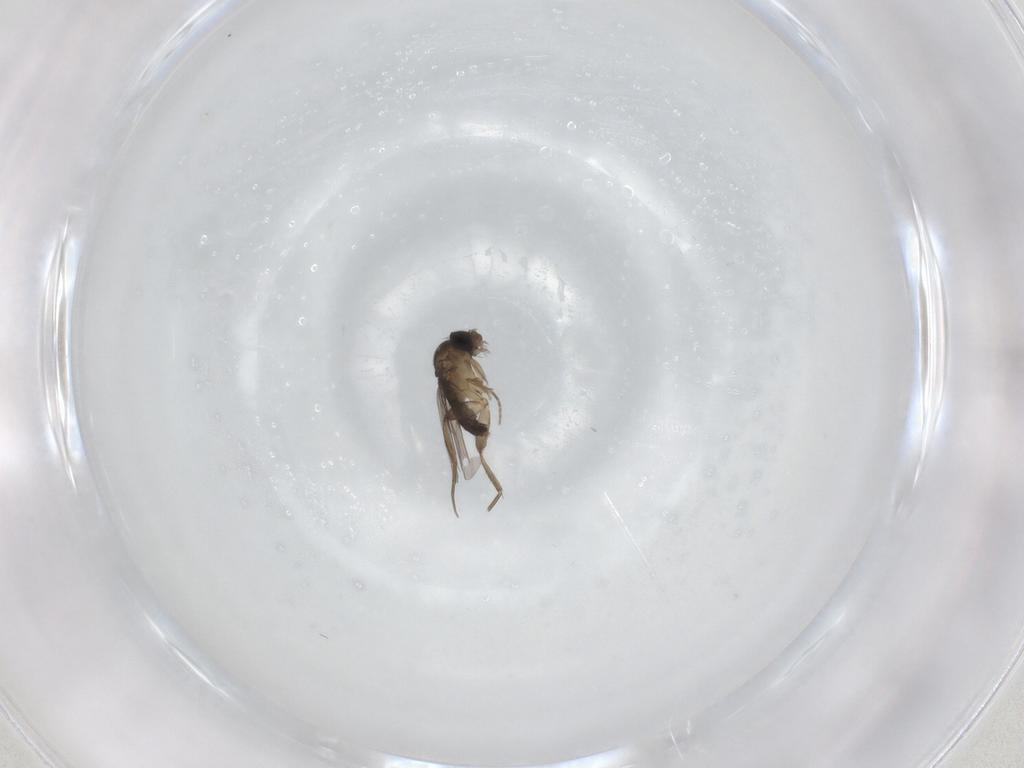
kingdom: Animalia
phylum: Arthropoda
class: Insecta
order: Diptera
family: Phoridae
